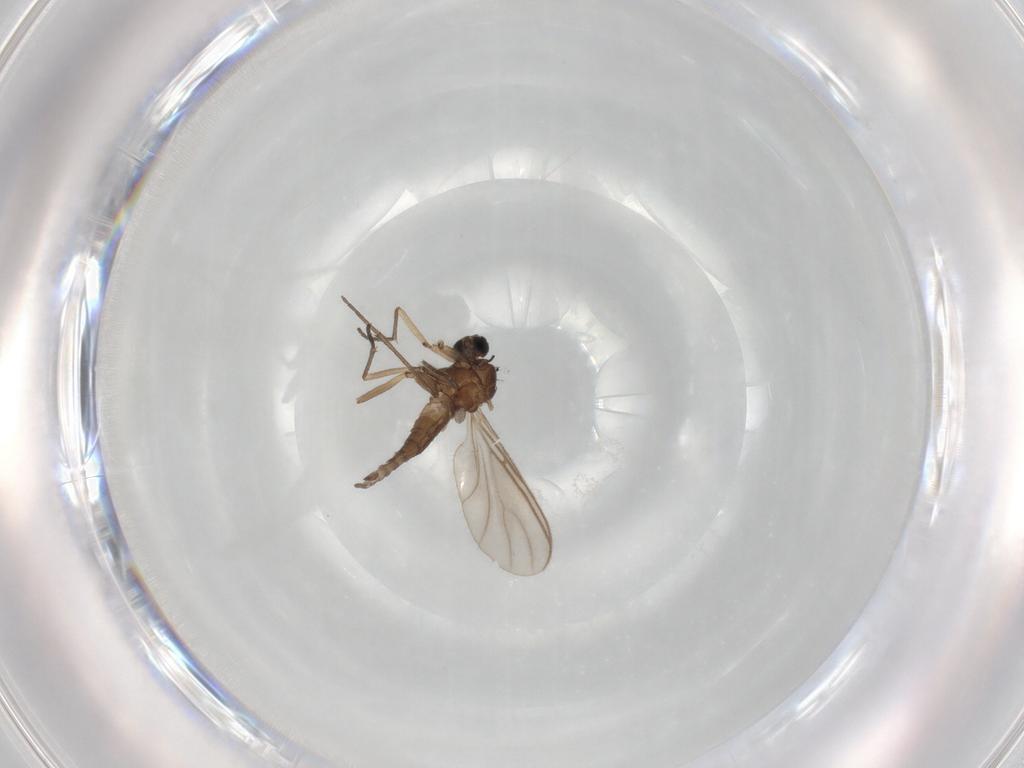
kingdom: Animalia
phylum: Arthropoda
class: Insecta
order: Diptera
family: Sciaridae
